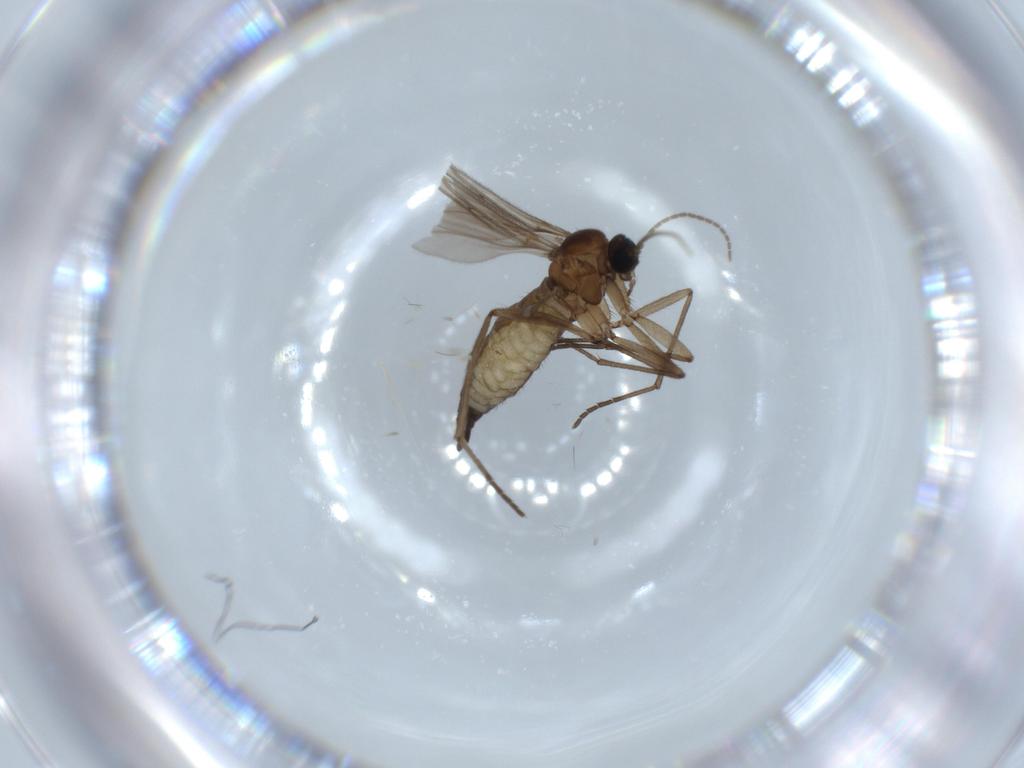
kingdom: Animalia
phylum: Arthropoda
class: Insecta
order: Diptera
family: Sciaridae
